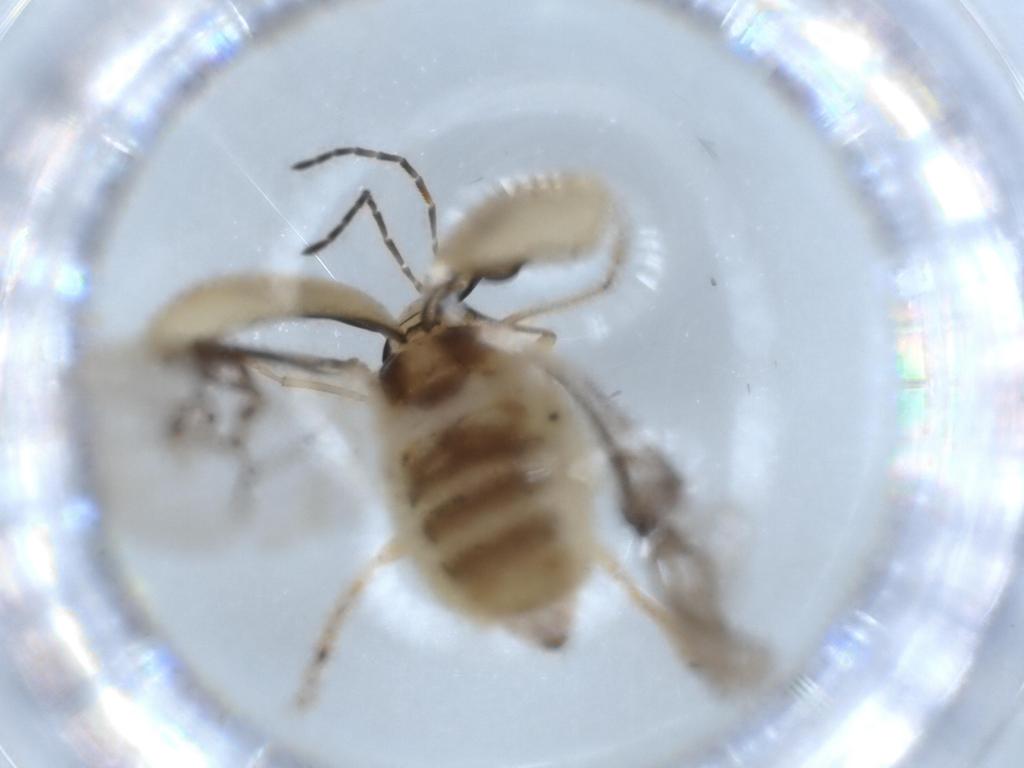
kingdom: Animalia
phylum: Arthropoda
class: Insecta
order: Coleoptera
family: Chrysomelidae
